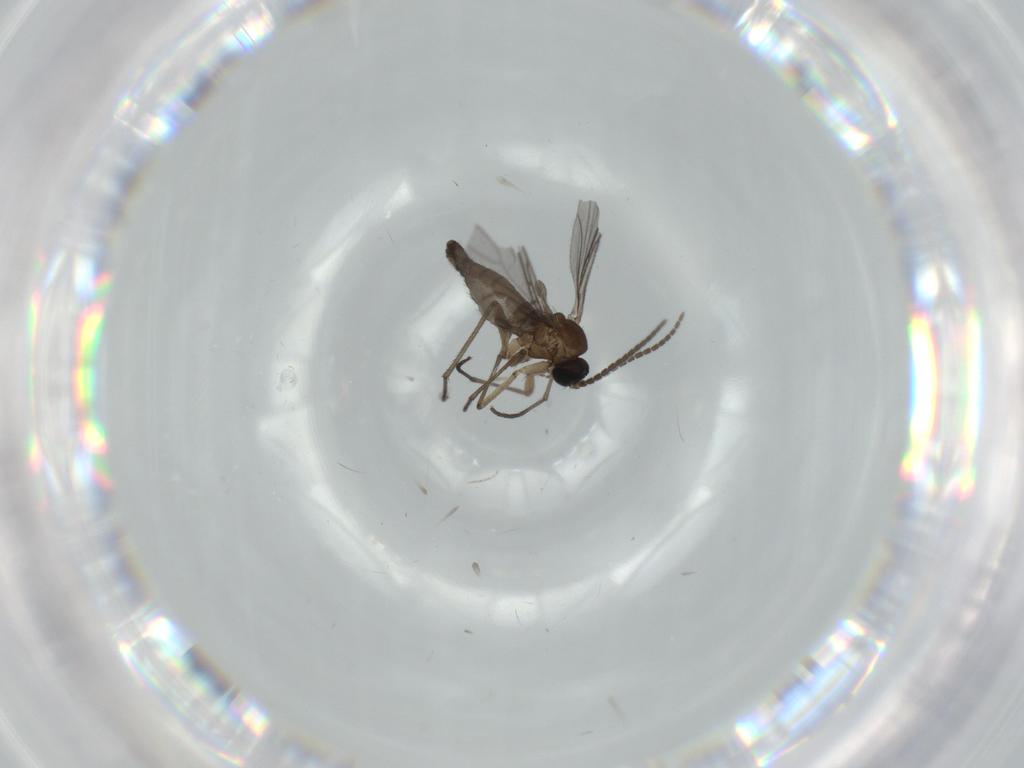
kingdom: Animalia
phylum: Arthropoda
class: Insecta
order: Diptera
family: Sciaridae
